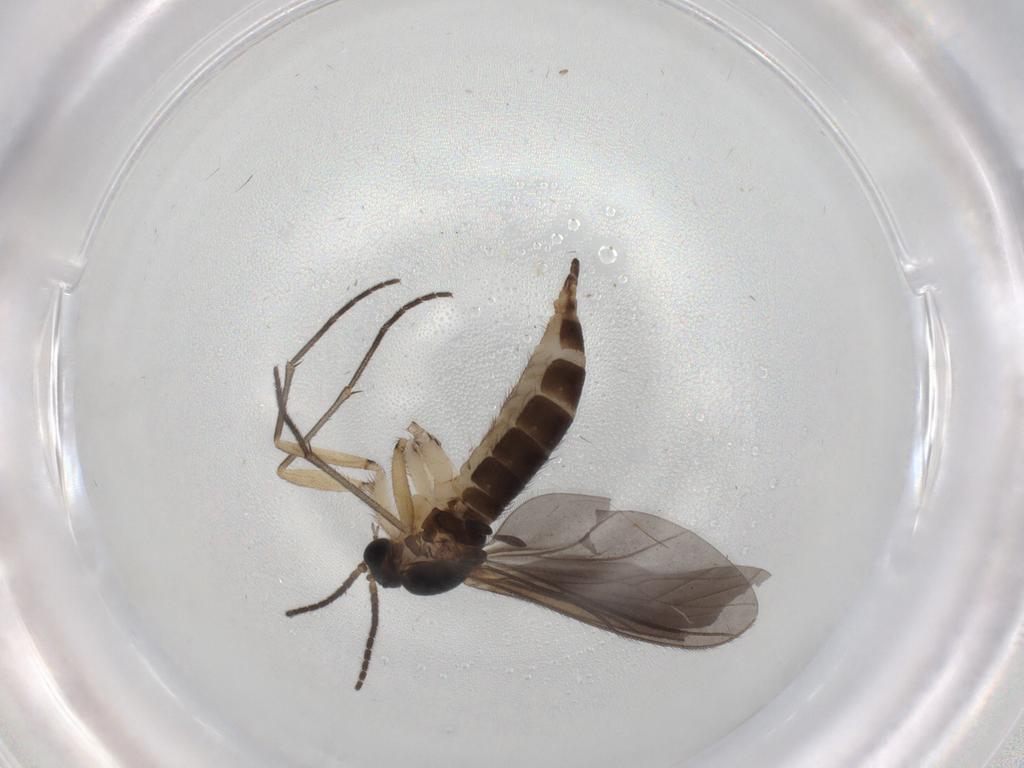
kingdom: Animalia
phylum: Arthropoda
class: Insecta
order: Diptera
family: Sciaridae
